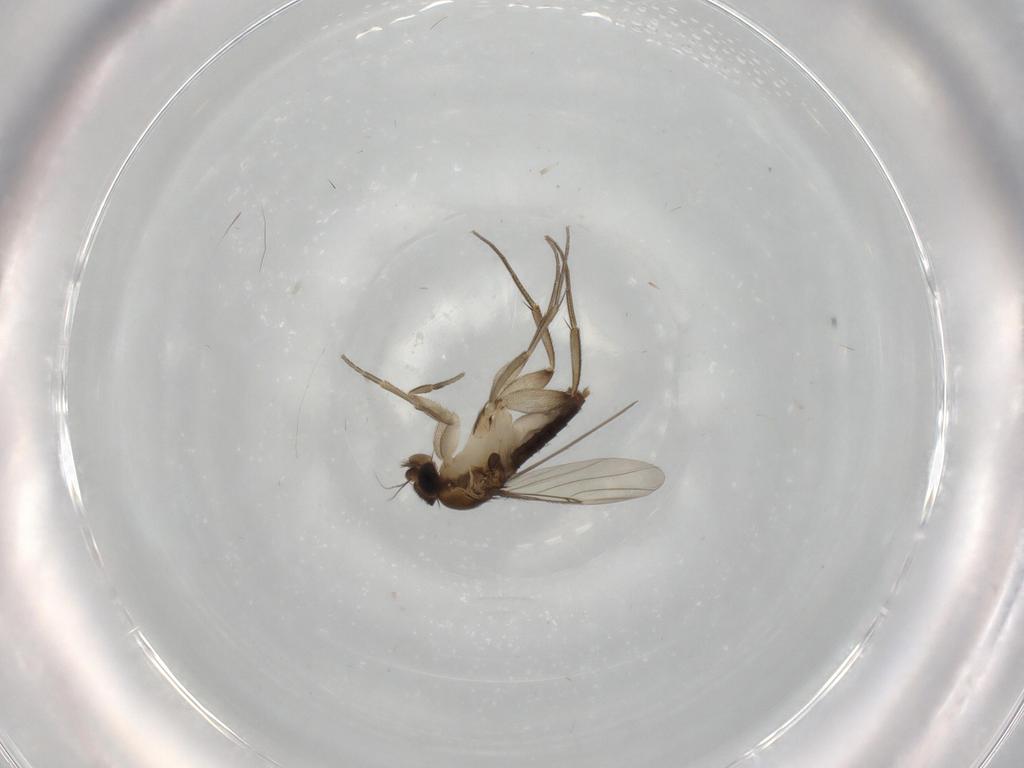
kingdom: Animalia
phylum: Arthropoda
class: Insecta
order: Diptera
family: Phoridae
